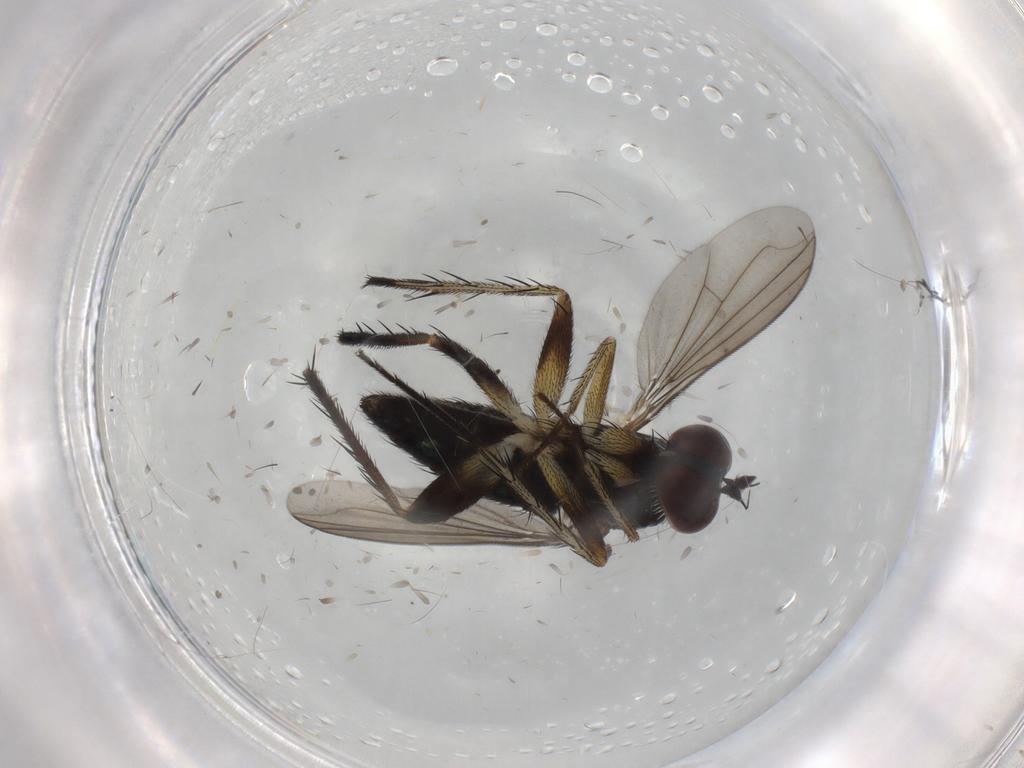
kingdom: Animalia
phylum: Arthropoda
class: Insecta
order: Diptera
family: Dolichopodidae
